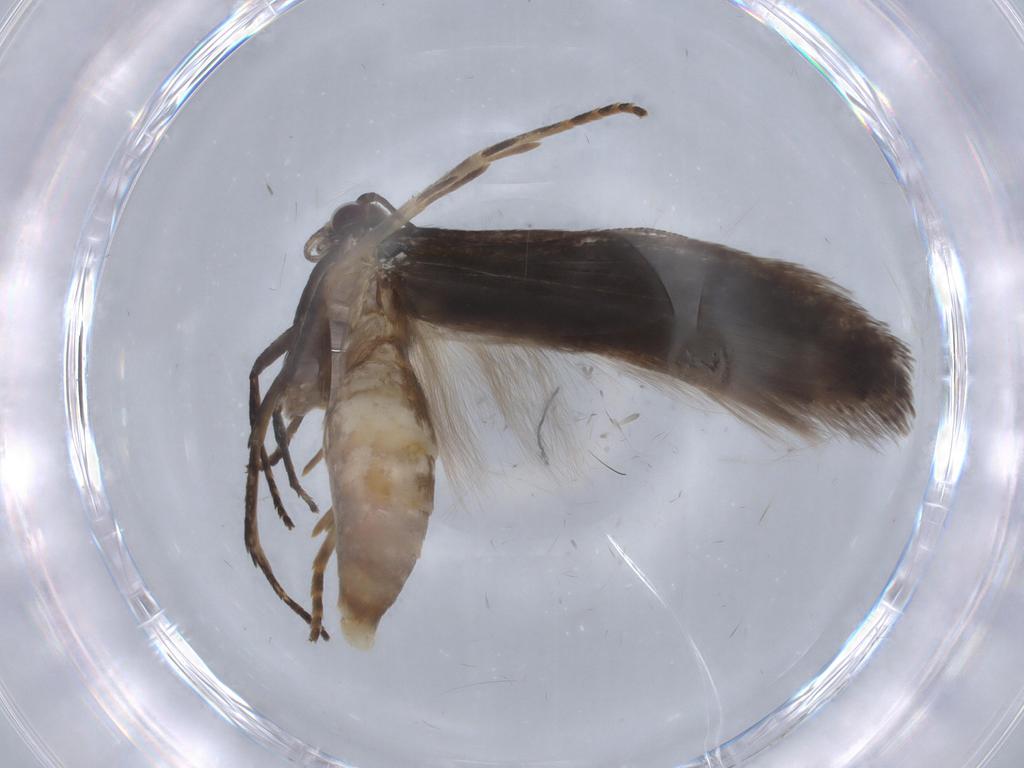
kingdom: Animalia
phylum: Arthropoda
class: Insecta
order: Lepidoptera
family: Gelechiidae
